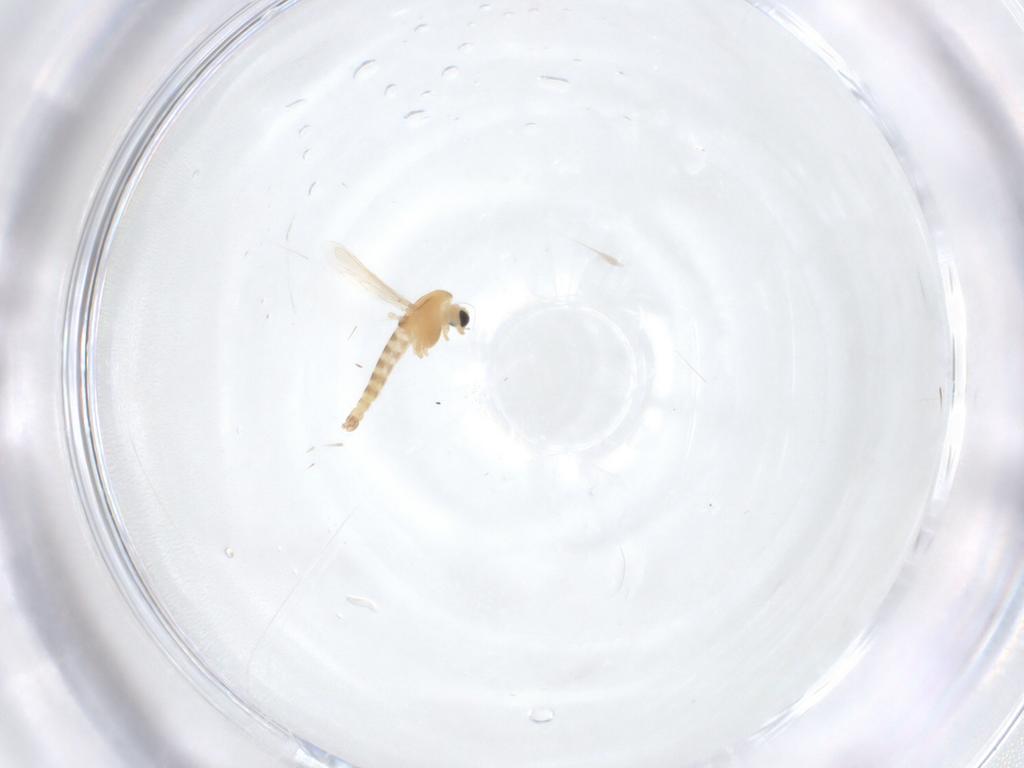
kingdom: Animalia
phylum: Arthropoda
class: Insecta
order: Diptera
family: Chironomidae
